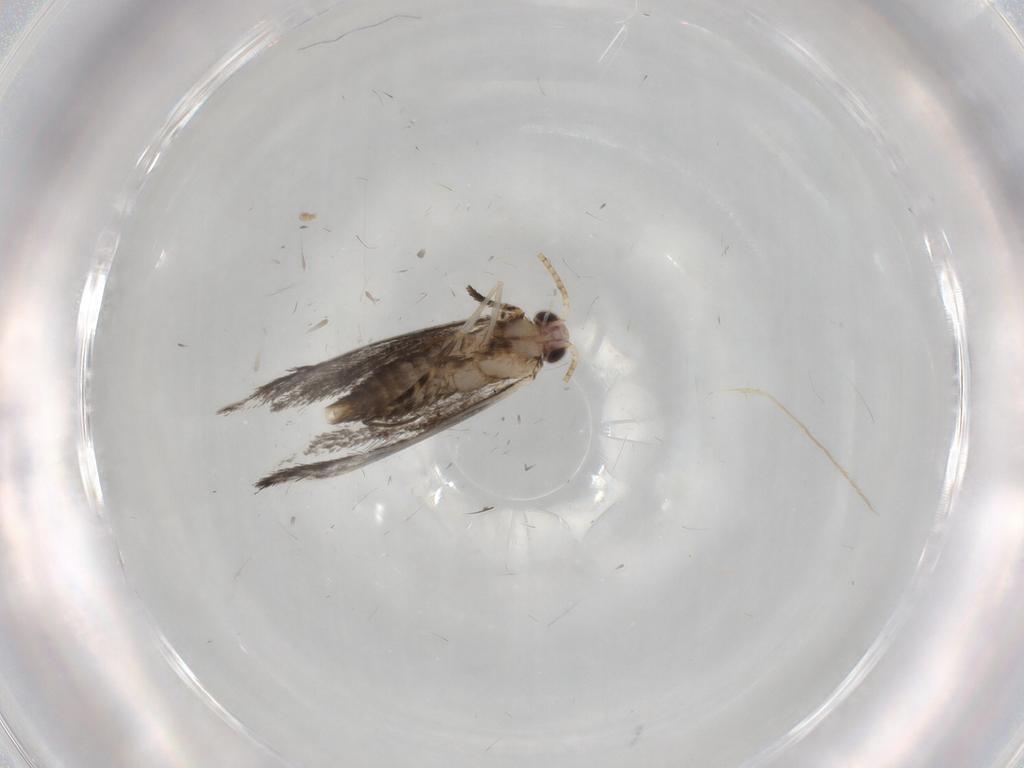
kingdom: Animalia
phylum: Arthropoda
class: Insecta
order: Lepidoptera
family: Tineidae
